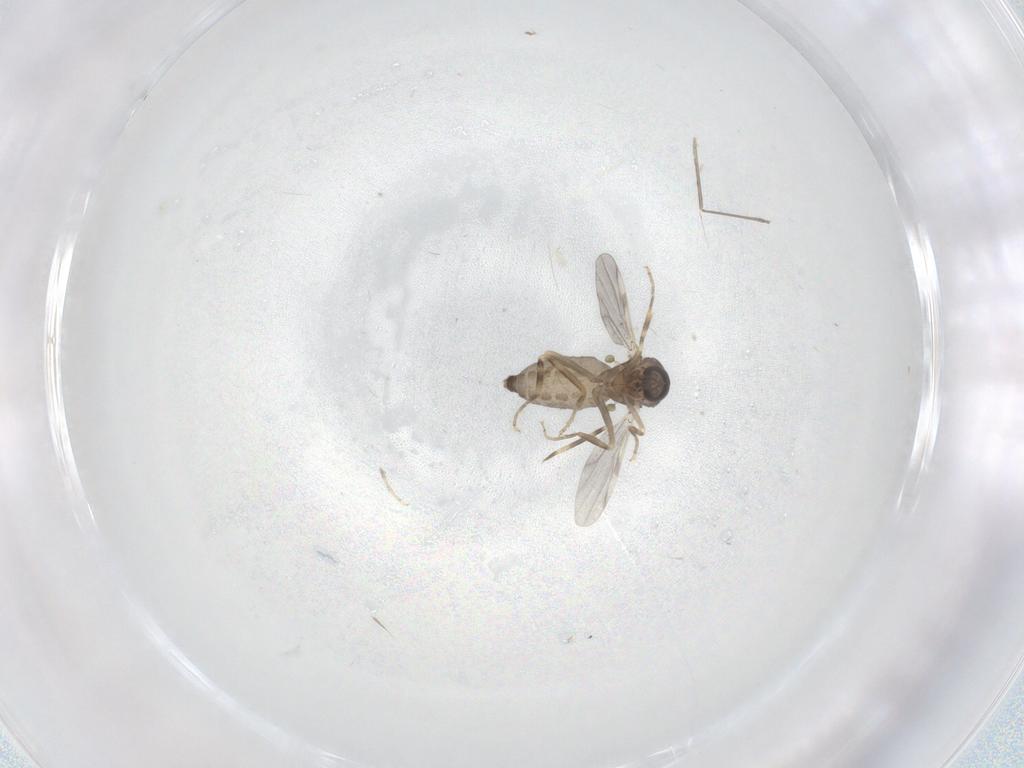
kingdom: Animalia
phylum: Arthropoda
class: Insecta
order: Diptera
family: Ceratopogonidae
